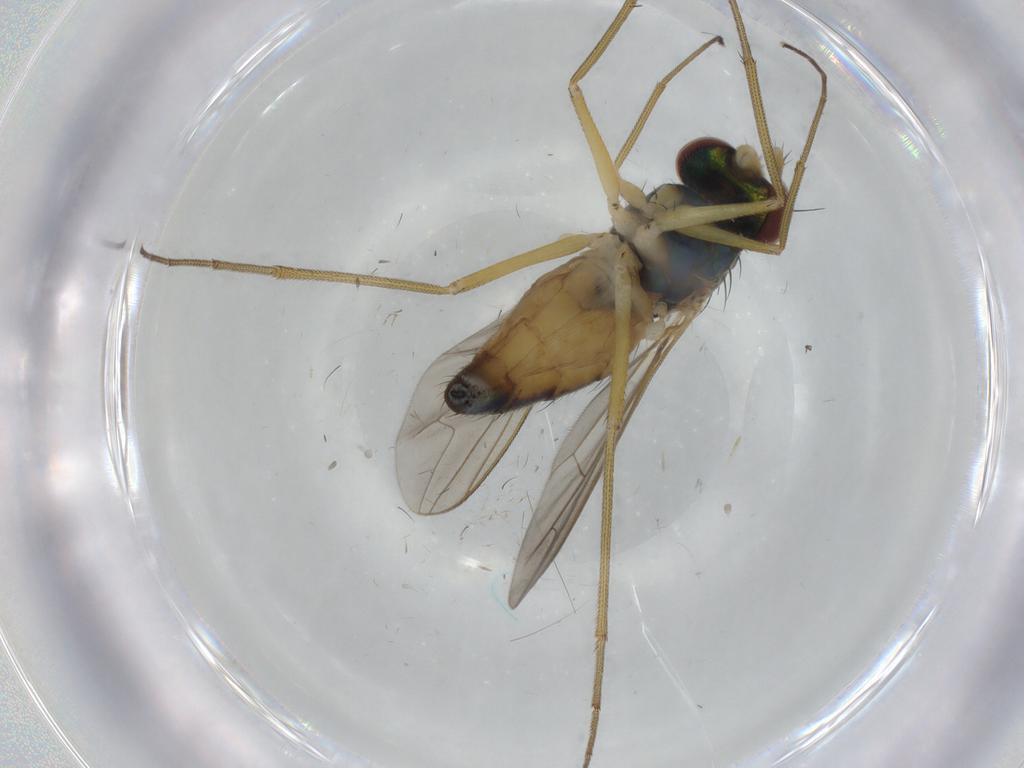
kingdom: Animalia
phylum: Arthropoda
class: Insecta
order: Diptera
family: Dolichopodidae
